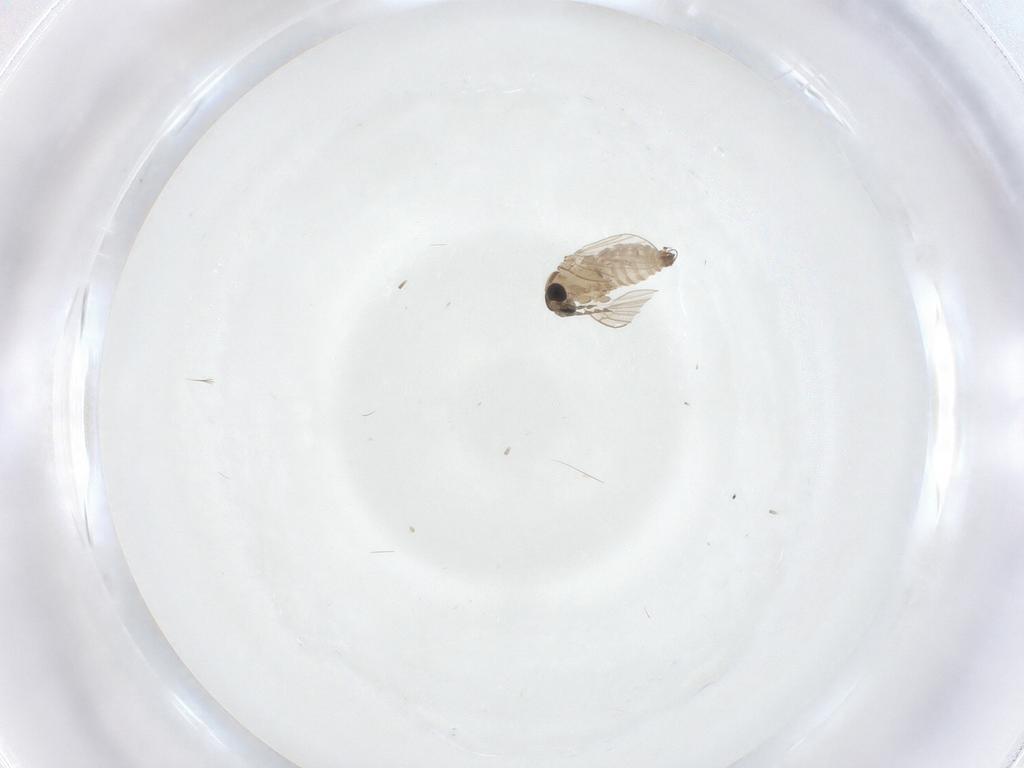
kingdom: Animalia
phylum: Arthropoda
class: Insecta
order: Diptera
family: Psychodidae
